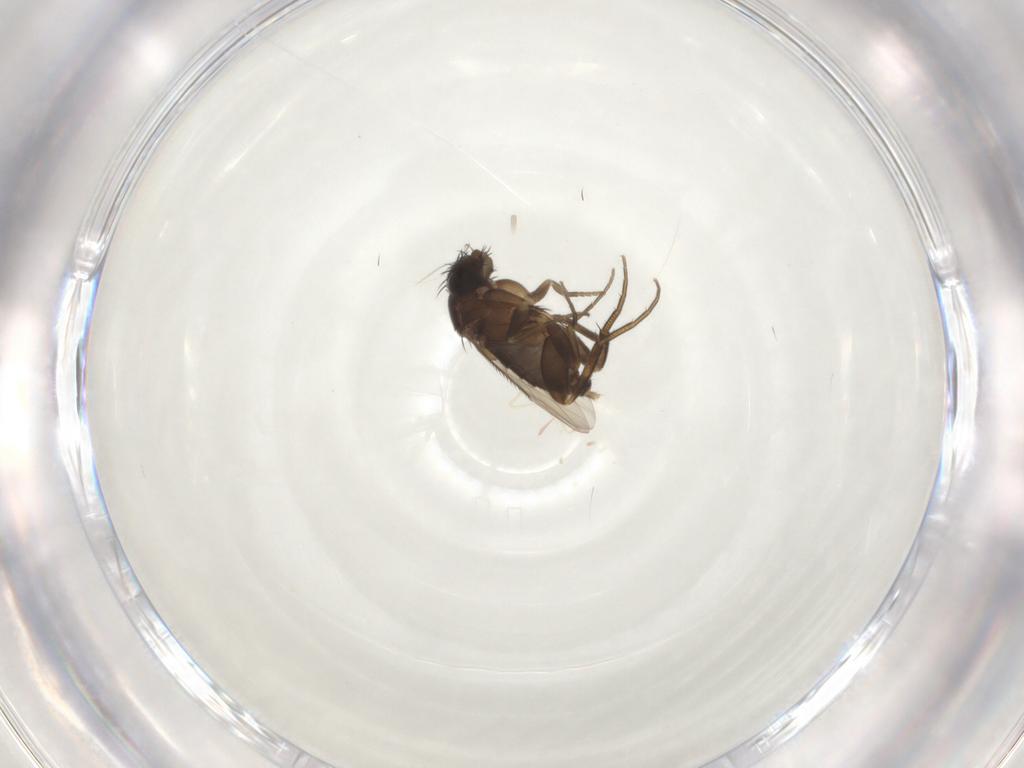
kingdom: Animalia
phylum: Arthropoda
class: Insecta
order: Diptera
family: Phoridae
